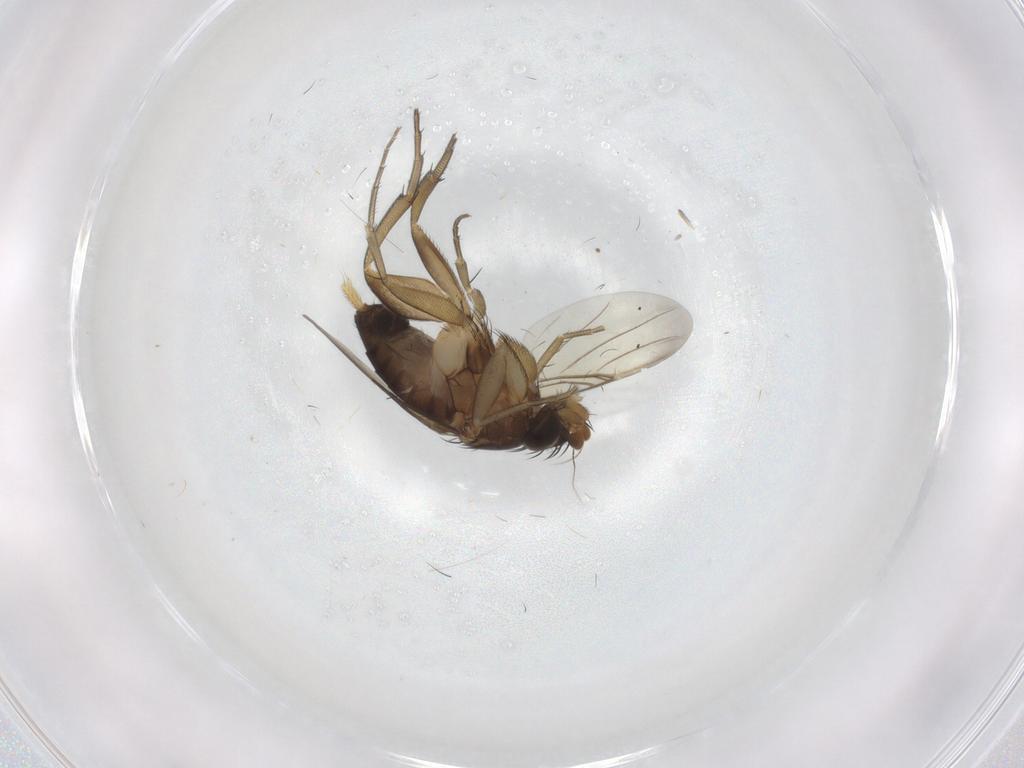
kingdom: Animalia
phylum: Arthropoda
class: Insecta
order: Diptera
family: Phoridae
